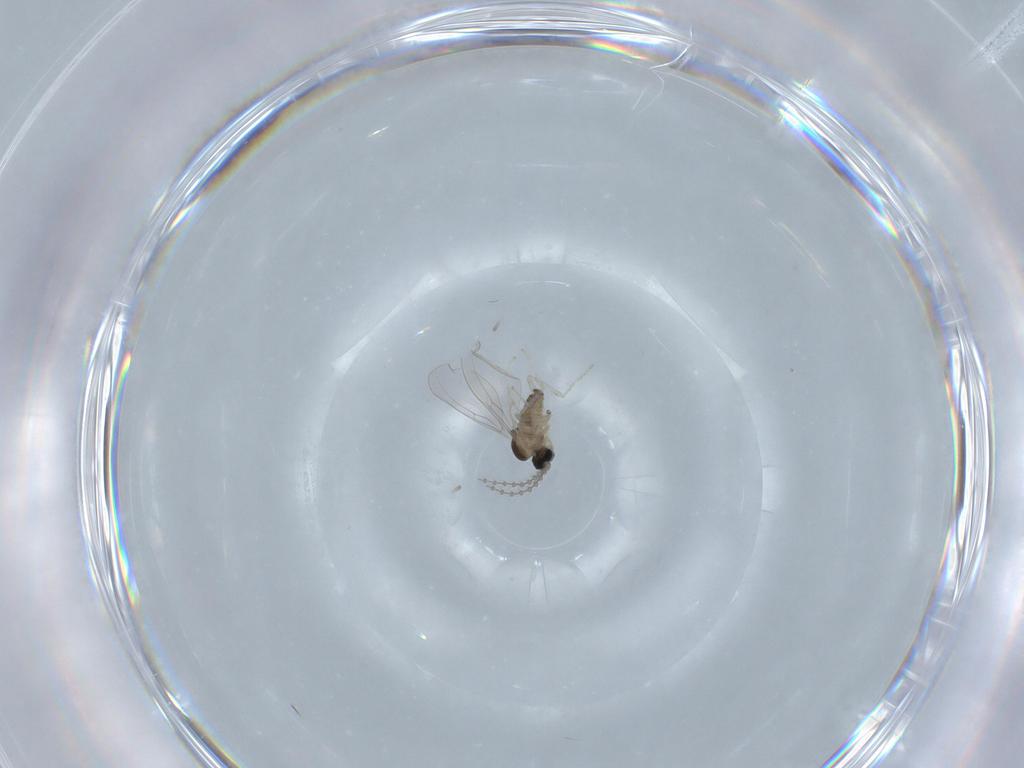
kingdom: Animalia
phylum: Arthropoda
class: Insecta
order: Diptera
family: Cecidomyiidae
